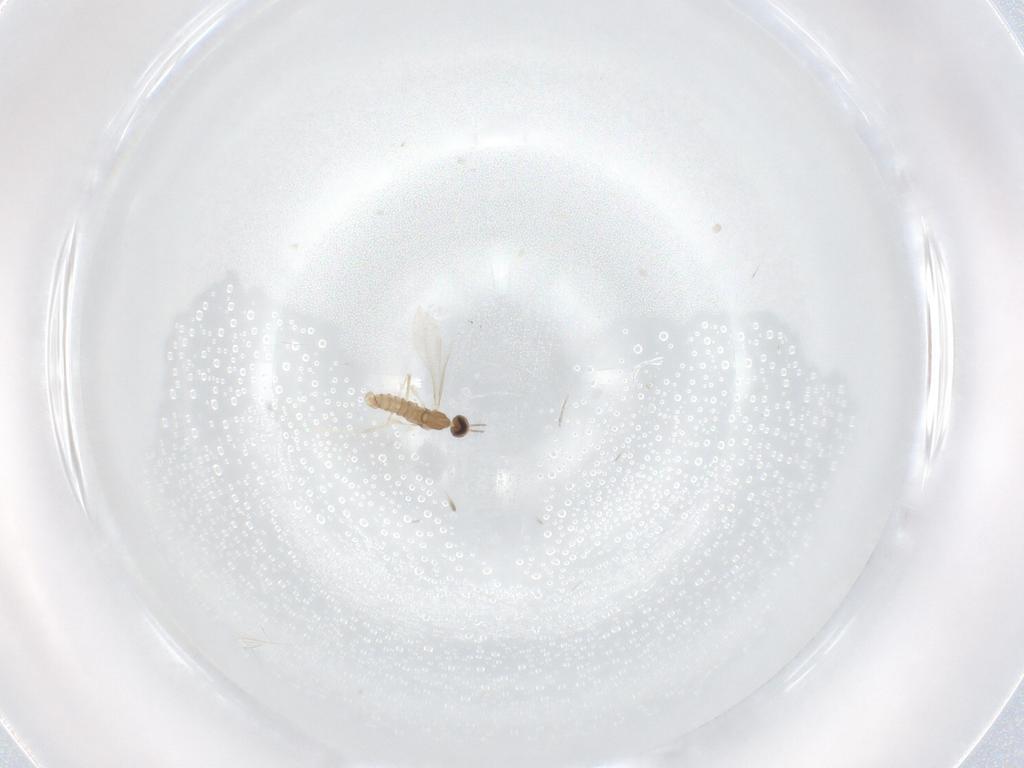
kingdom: Animalia
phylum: Arthropoda
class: Insecta
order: Diptera
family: Cecidomyiidae
